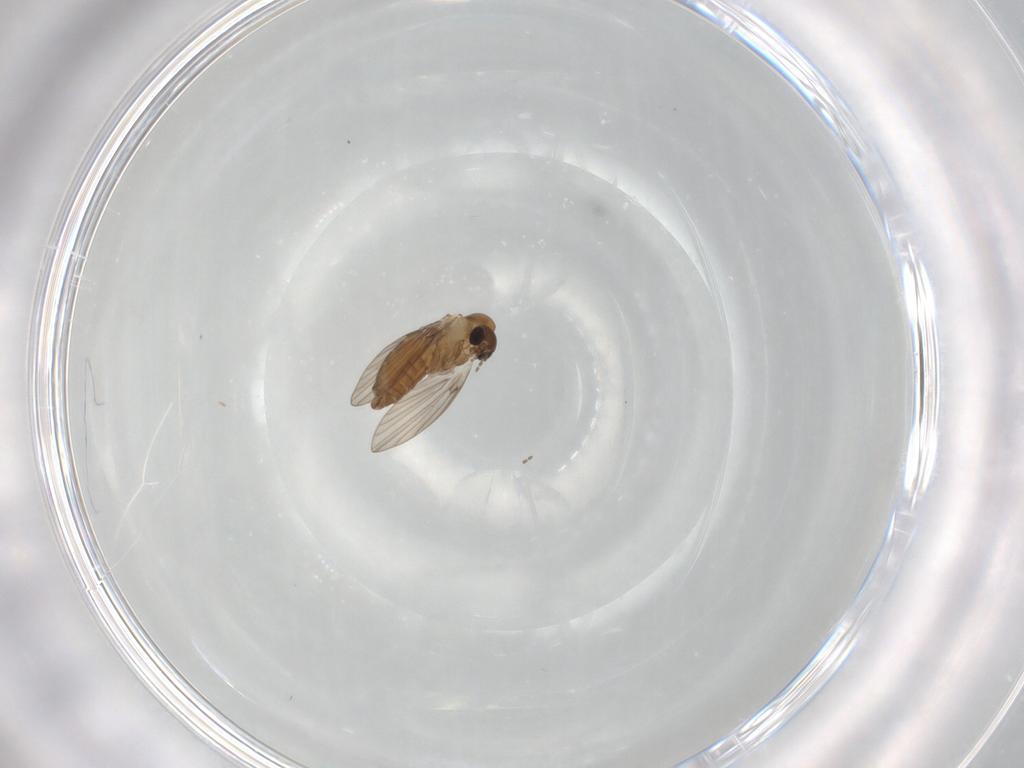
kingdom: Animalia
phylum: Arthropoda
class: Insecta
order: Diptera
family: Psychodidae
